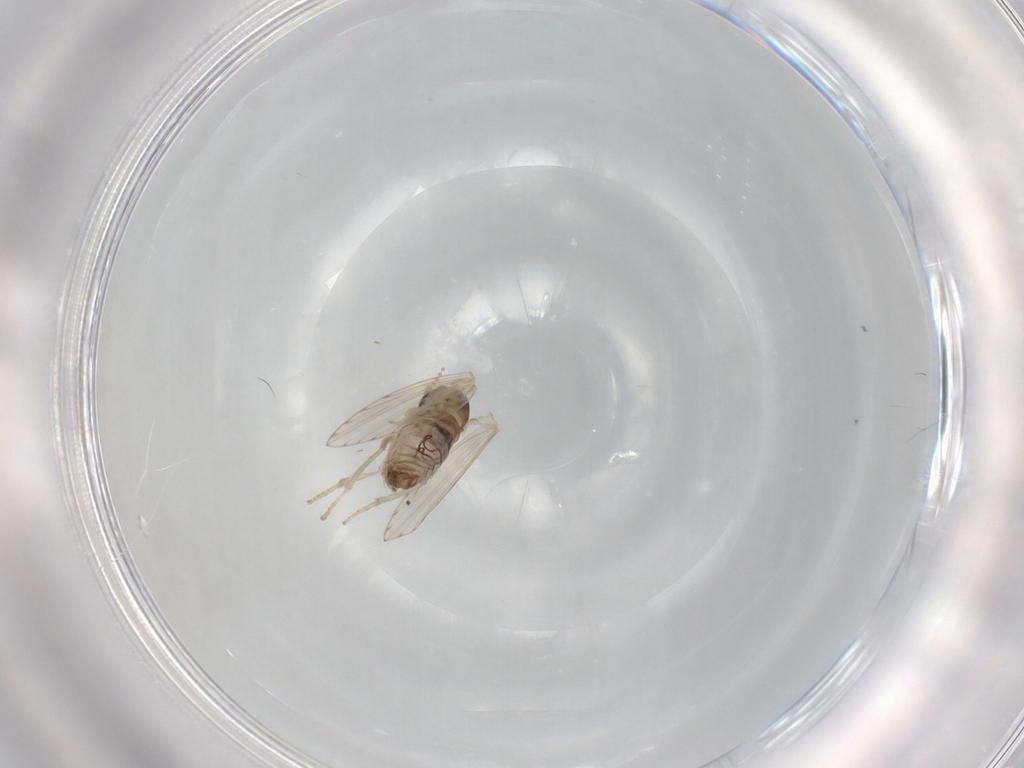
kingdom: Animalia
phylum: Arthropoda
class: Insecta
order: Diptera
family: Psychodidae
